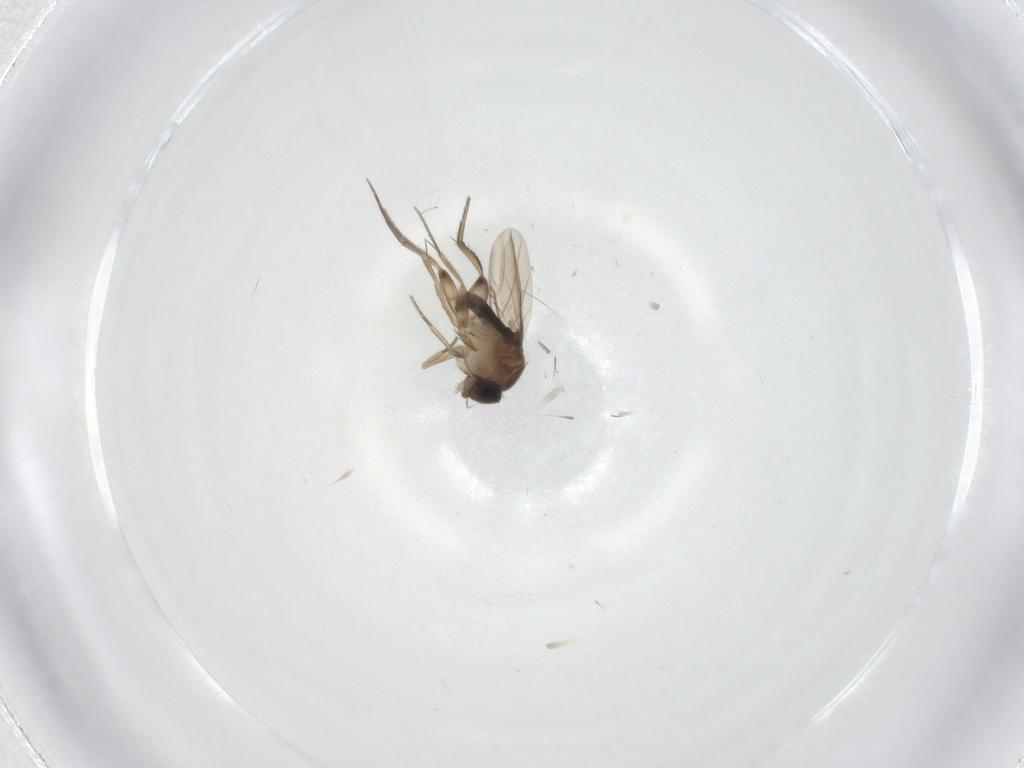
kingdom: Animalia
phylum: Arthropoda
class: Insecta
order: Diptera
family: Phoridae
